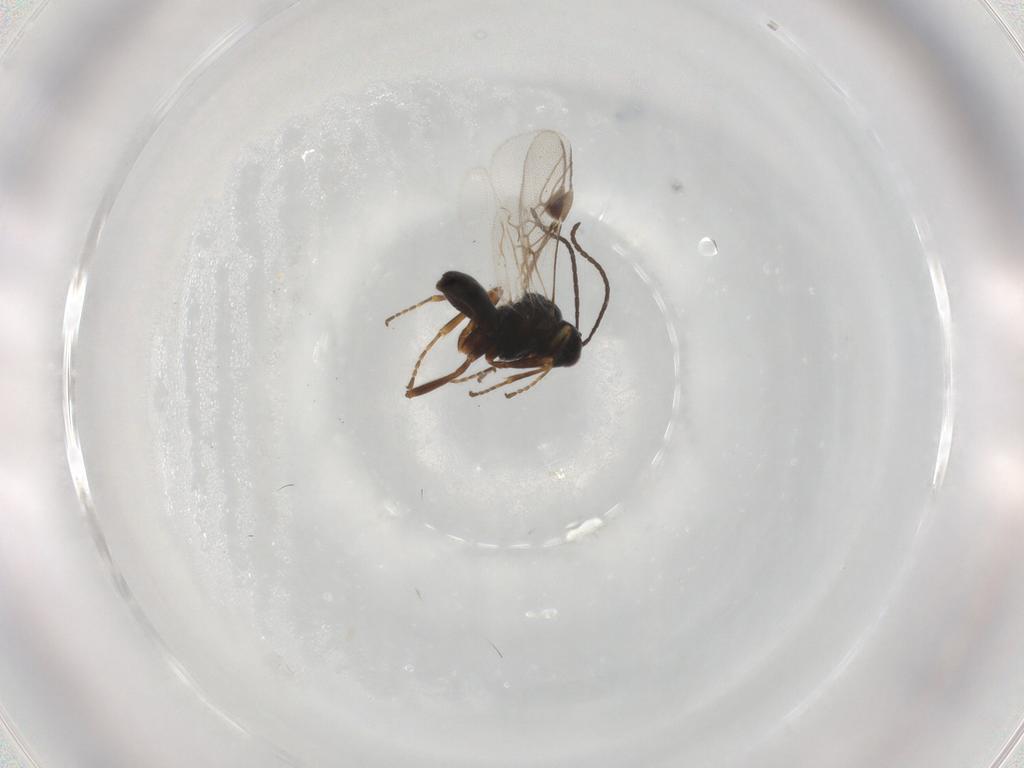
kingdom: Animalia
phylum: Arthropoda
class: Insecta
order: Hymenoptera
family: Braconidae
